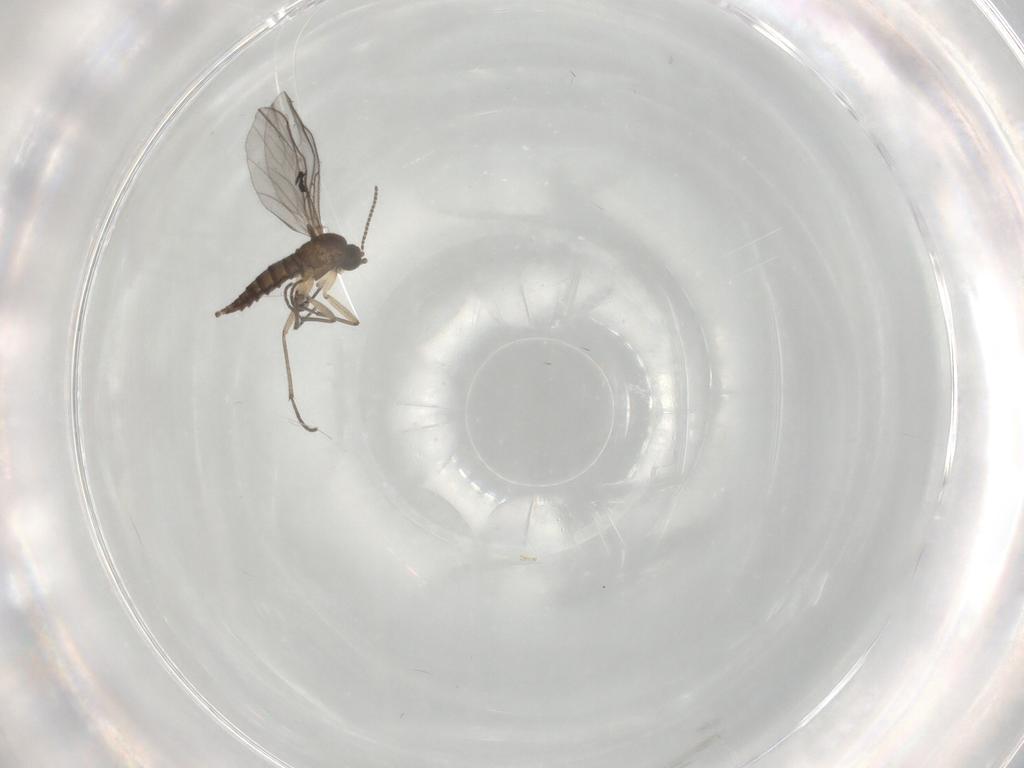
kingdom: Animalia
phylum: Arthropoda
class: Insecta
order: Diptera
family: Sciaridae
